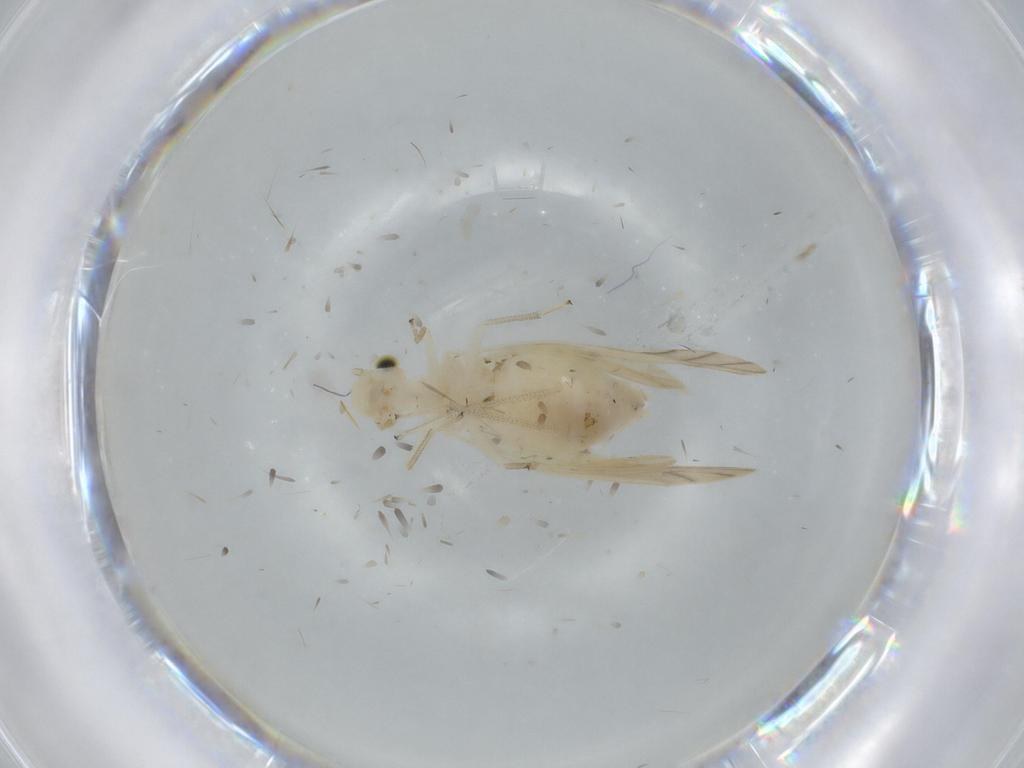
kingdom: Animalia
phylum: Arthropoda
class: Insecta
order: Psocodea
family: Caeciliusidae
